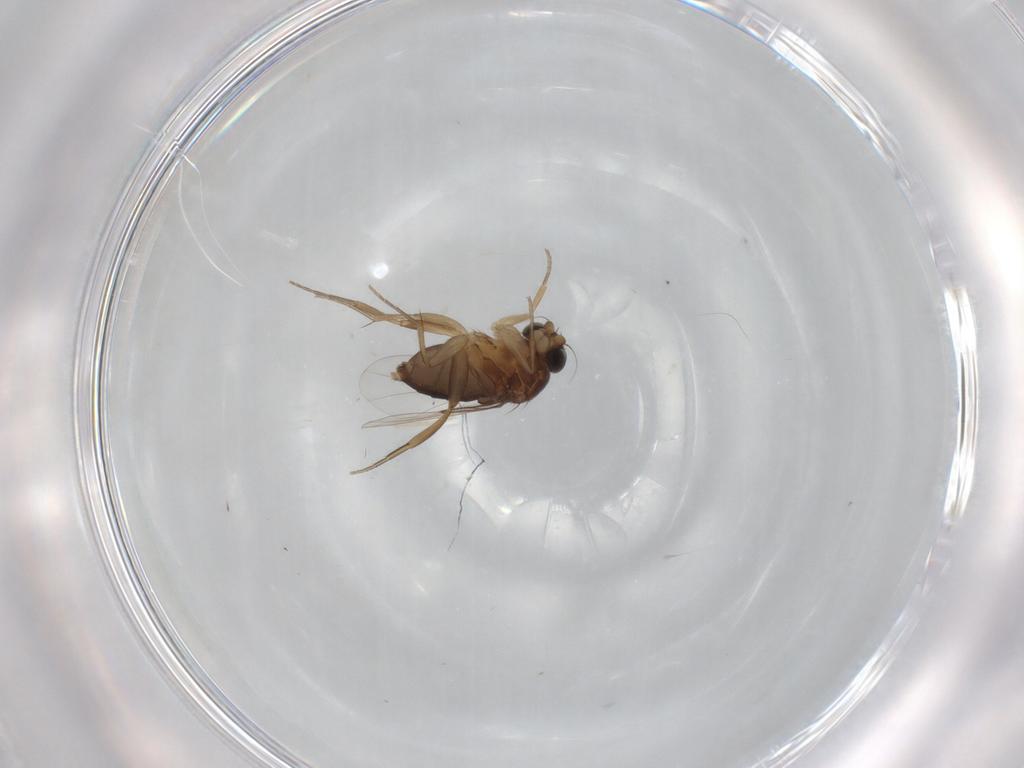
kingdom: Animalia
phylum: Arthropoda
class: Insecta
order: Diptera
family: Phoridae
